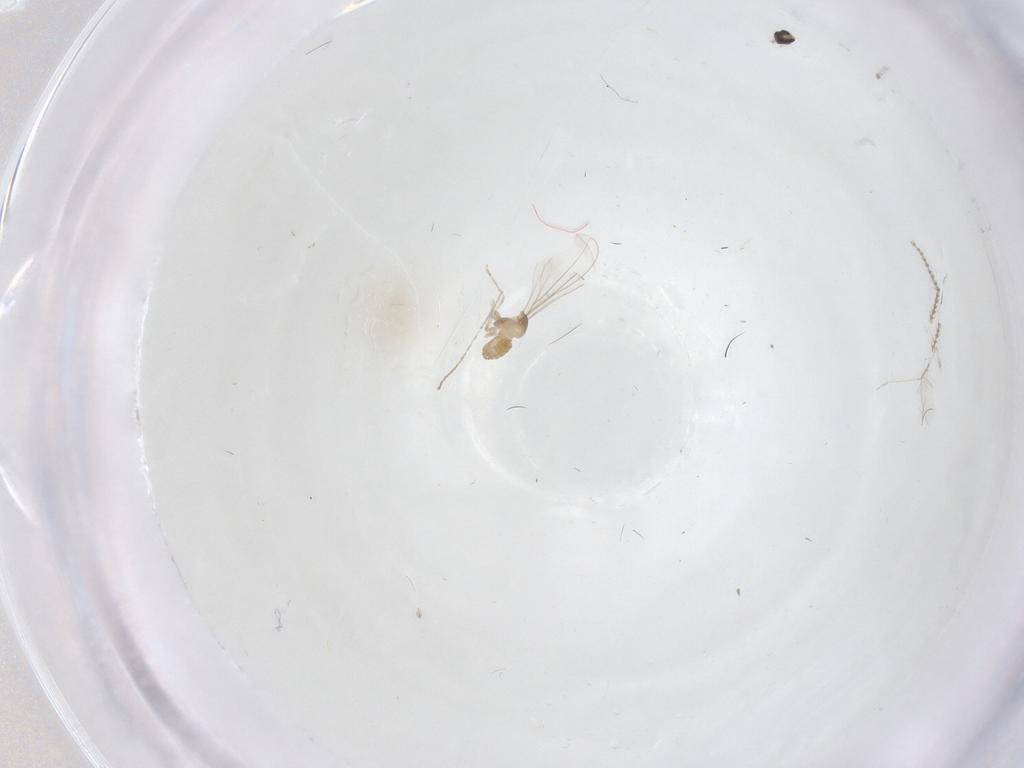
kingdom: Animalia
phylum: Arthropoda
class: Insecta
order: Diptera
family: Cecidomyiidae
